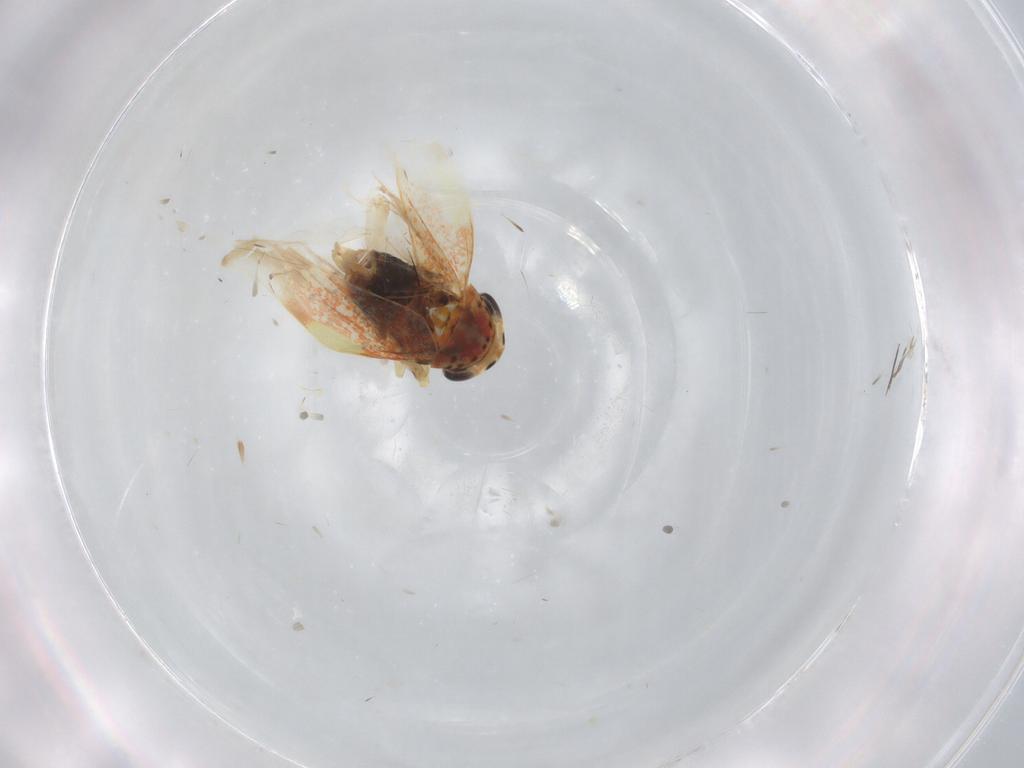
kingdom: Animalia
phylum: Arthropoda
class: Insecta
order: Hemiptera
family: Cicadellidae
